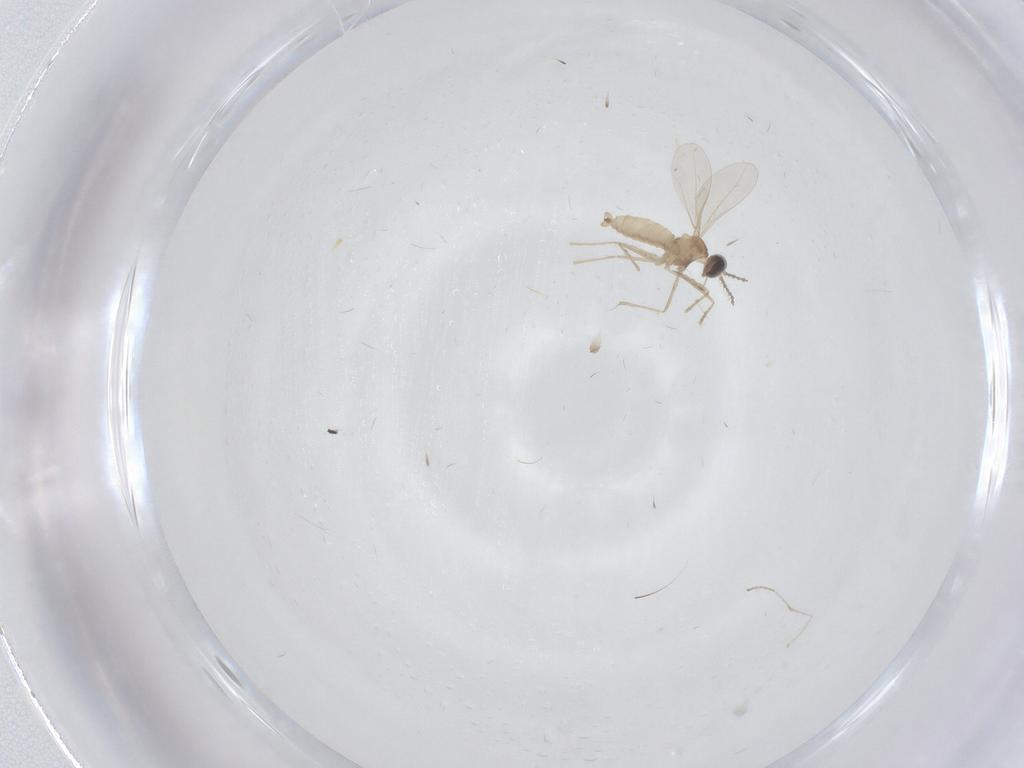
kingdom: Animalia
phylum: Arthropoda
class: Insecta
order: Diptera
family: Cecidomyiidae
